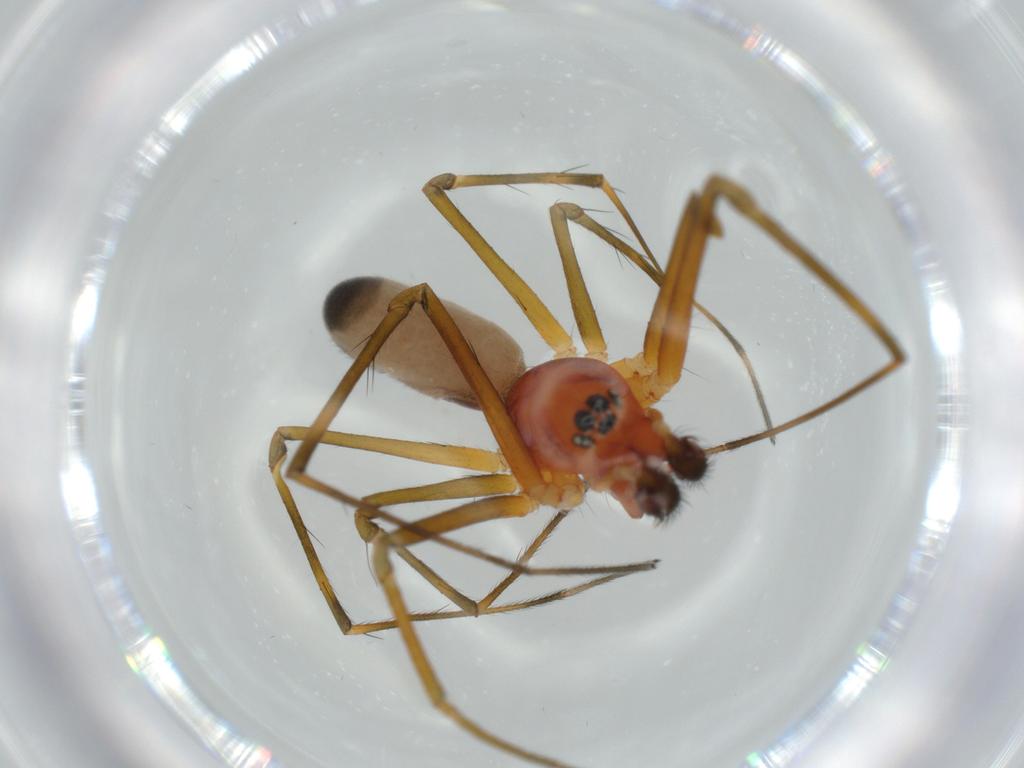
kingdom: Animalia
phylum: Arthropoda
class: Arachnida
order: Araneae
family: Linyphiidae
